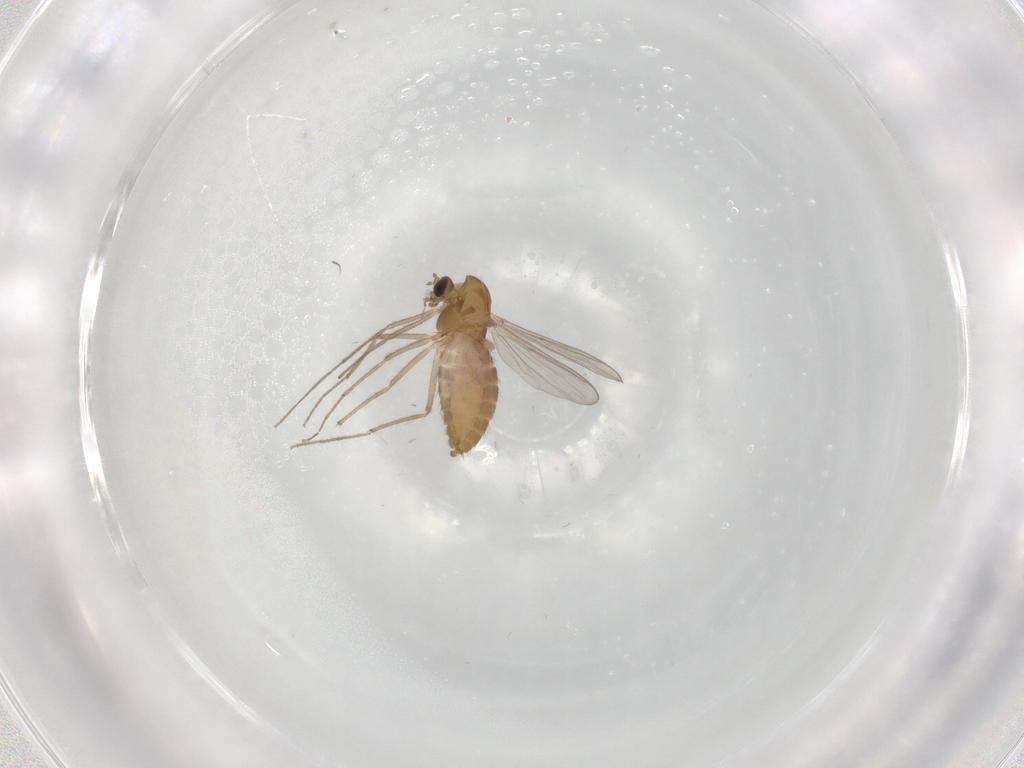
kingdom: Animalia
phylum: Arthropoda
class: Insecta
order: Diptera
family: Chironomidae
